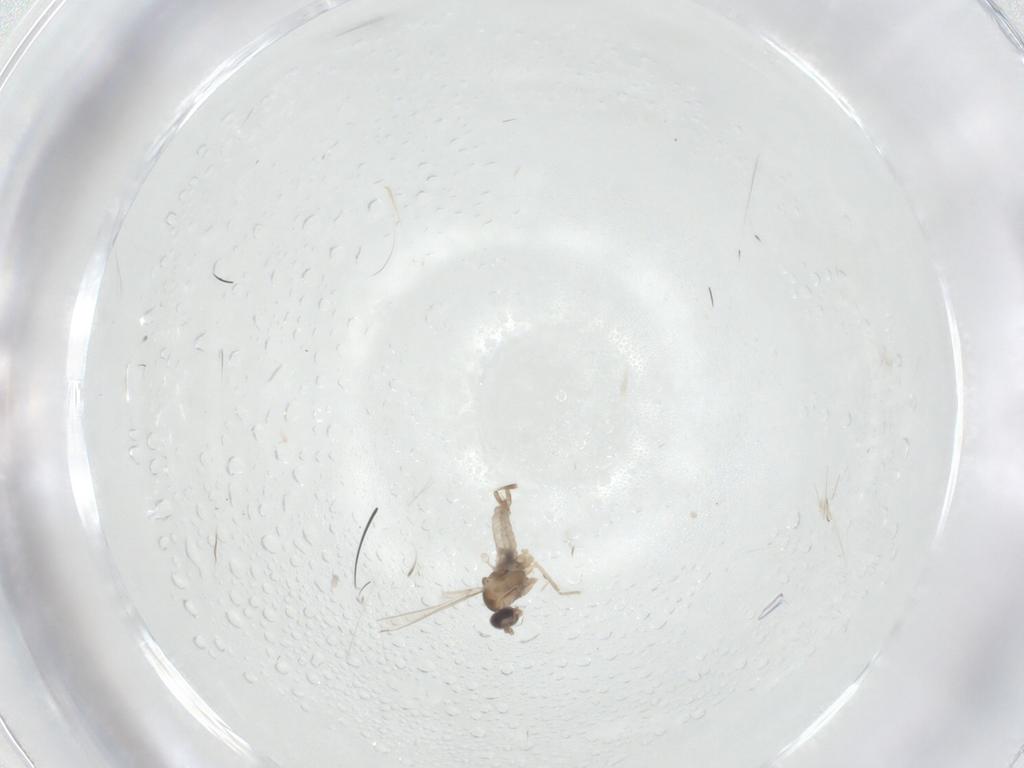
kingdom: Animalia
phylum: Arthropoda
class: Insecta
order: Diptera
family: Cecidomyiidae
